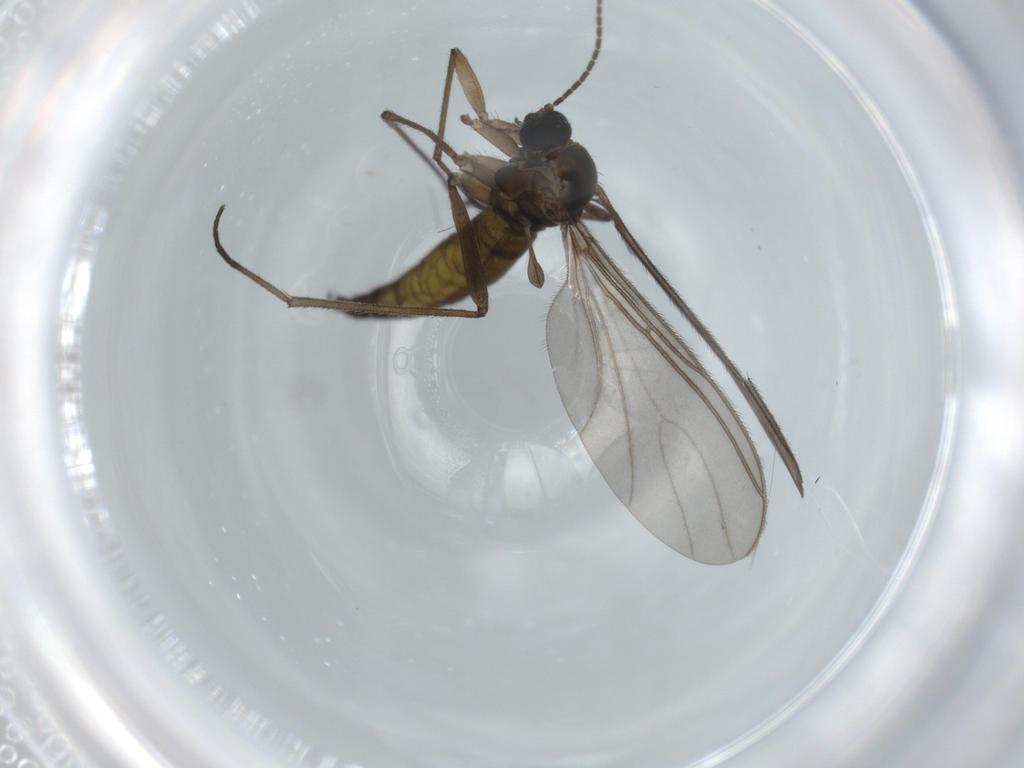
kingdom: Animalia
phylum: Arthropoda
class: Insecta
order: Diptera
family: Sciaridae
